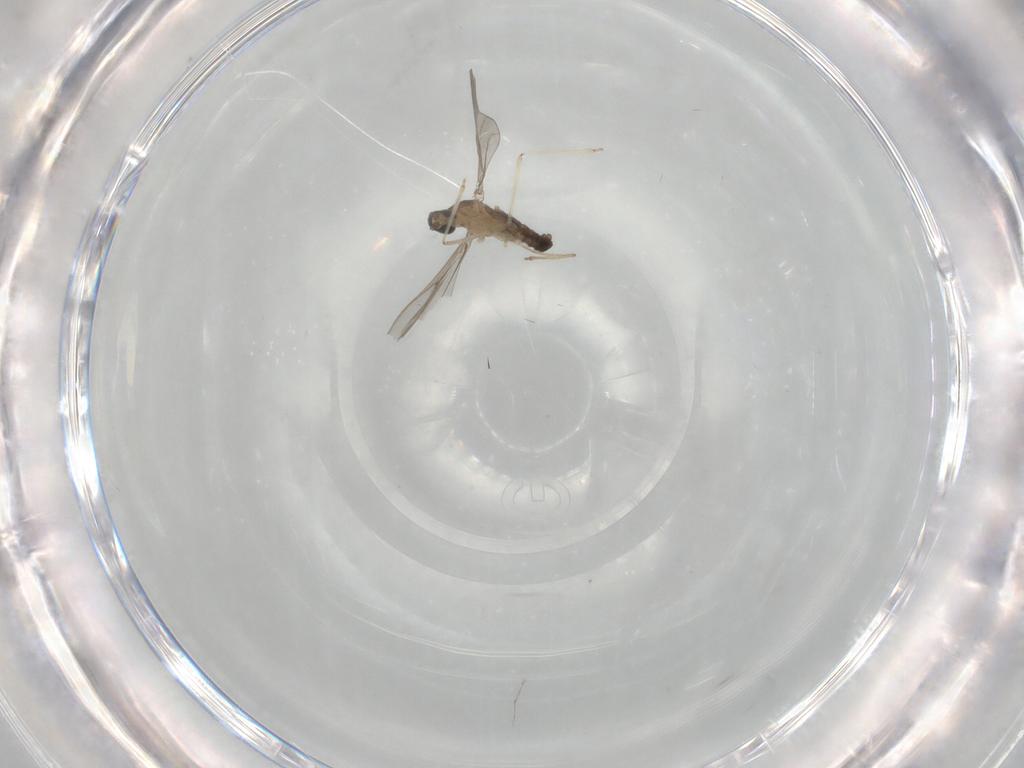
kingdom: Animalia
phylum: Arthropoda
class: Insecta
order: Diptera
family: Cecidomyiidae
